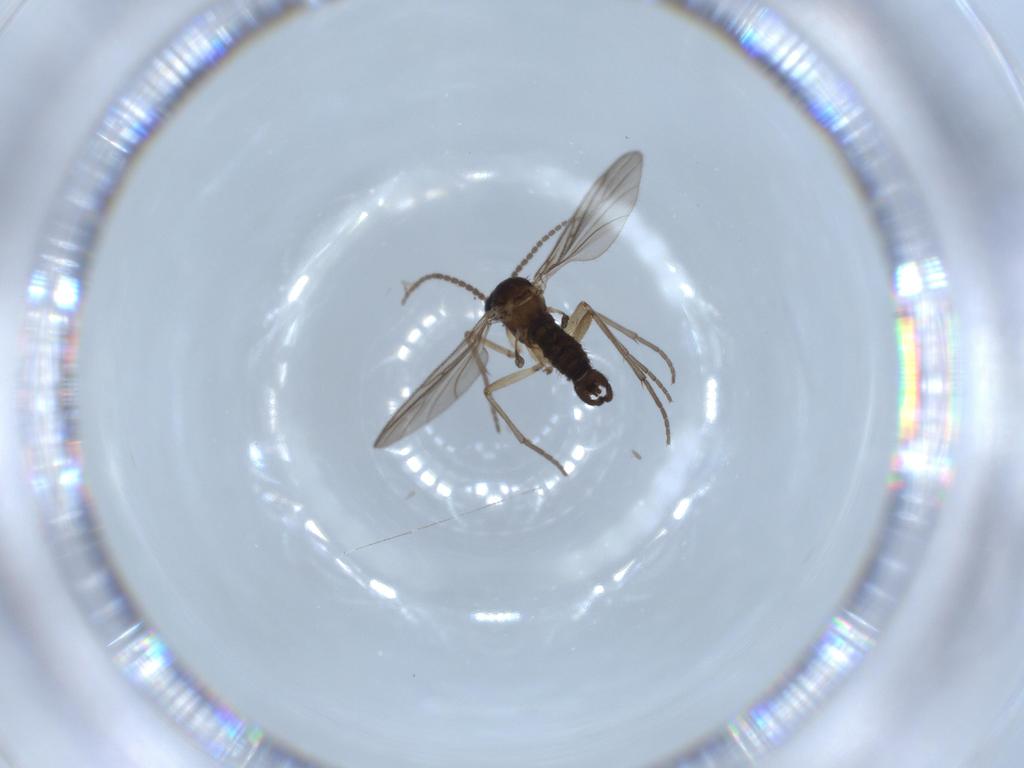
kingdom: Animalia
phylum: Arthropoda
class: Insecta
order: Diptera
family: Sciaridae
